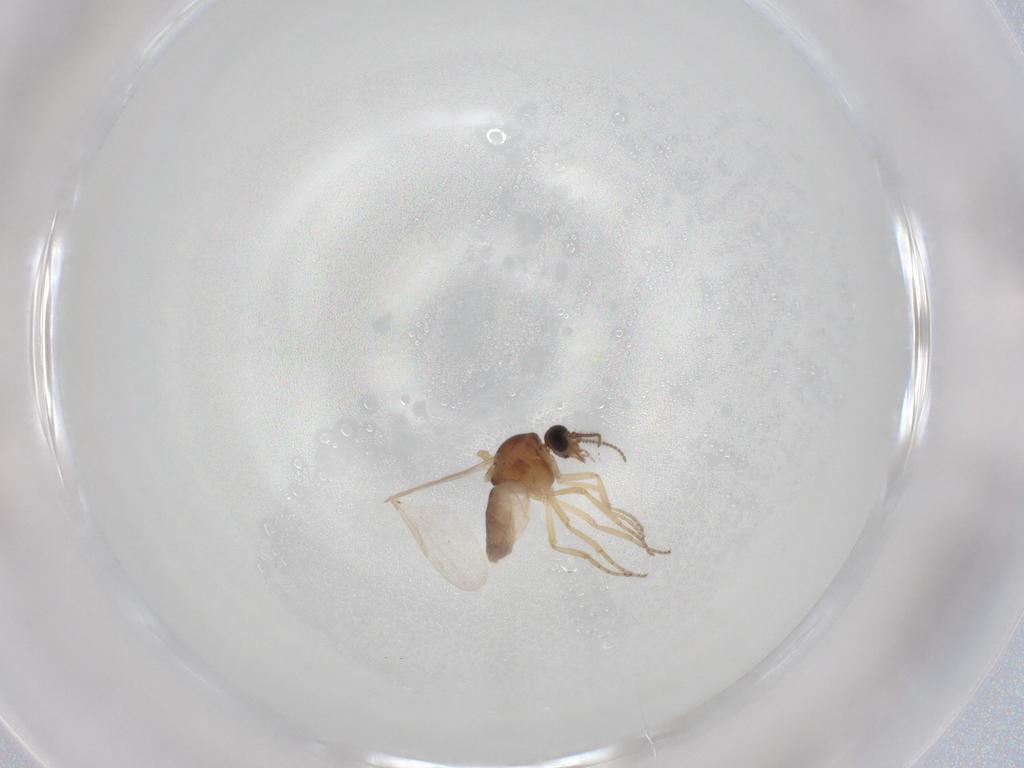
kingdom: Animalia
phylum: Arthropoda
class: Insecta
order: Diptera
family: Ceratopogonidae
